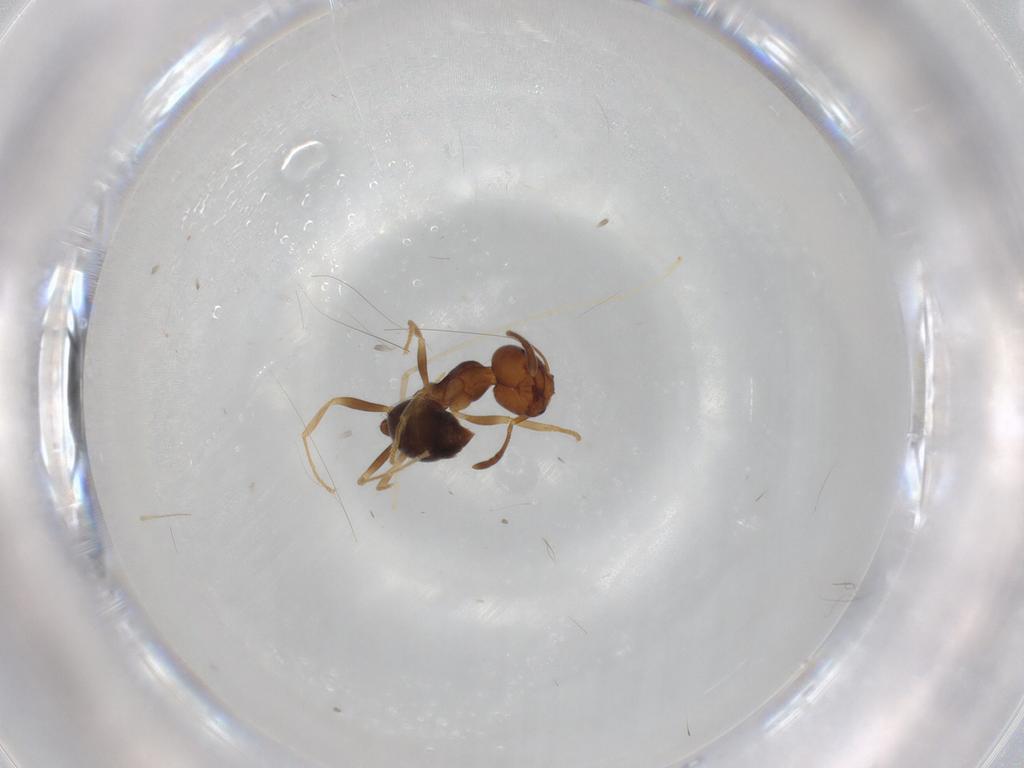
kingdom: Animalia
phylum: Arthropoda
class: Insecta
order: Hymenoptera
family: Formicidae
